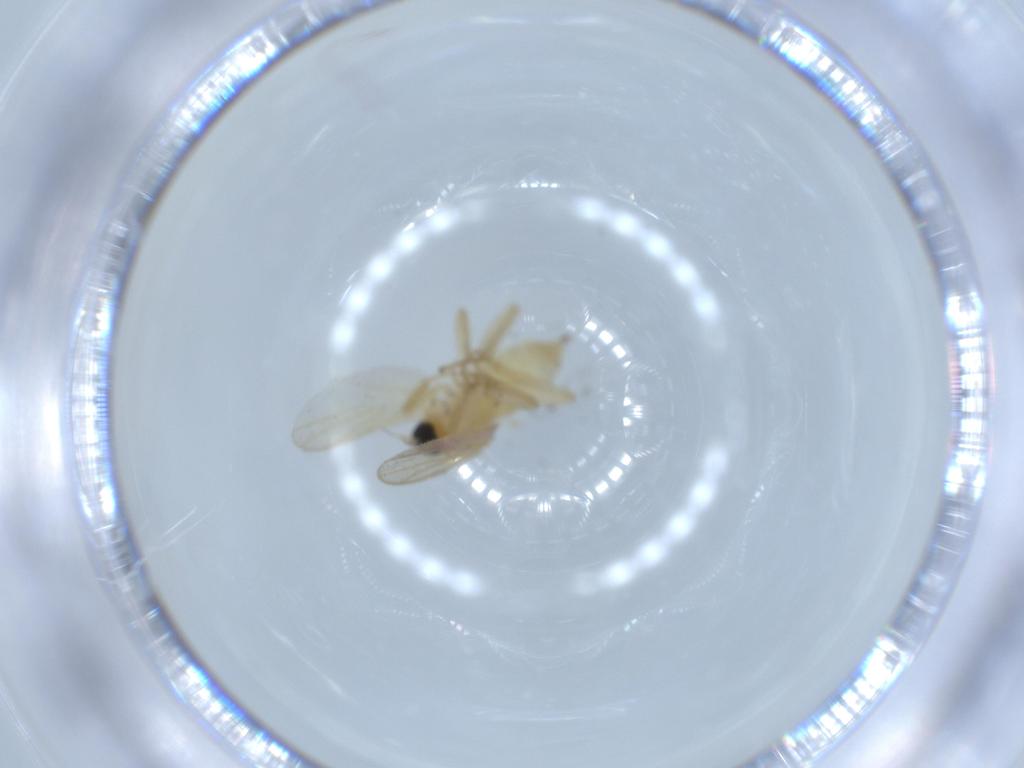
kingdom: Animalia
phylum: Arthropoda
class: Insecta
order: Diptera
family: Hybotidae
